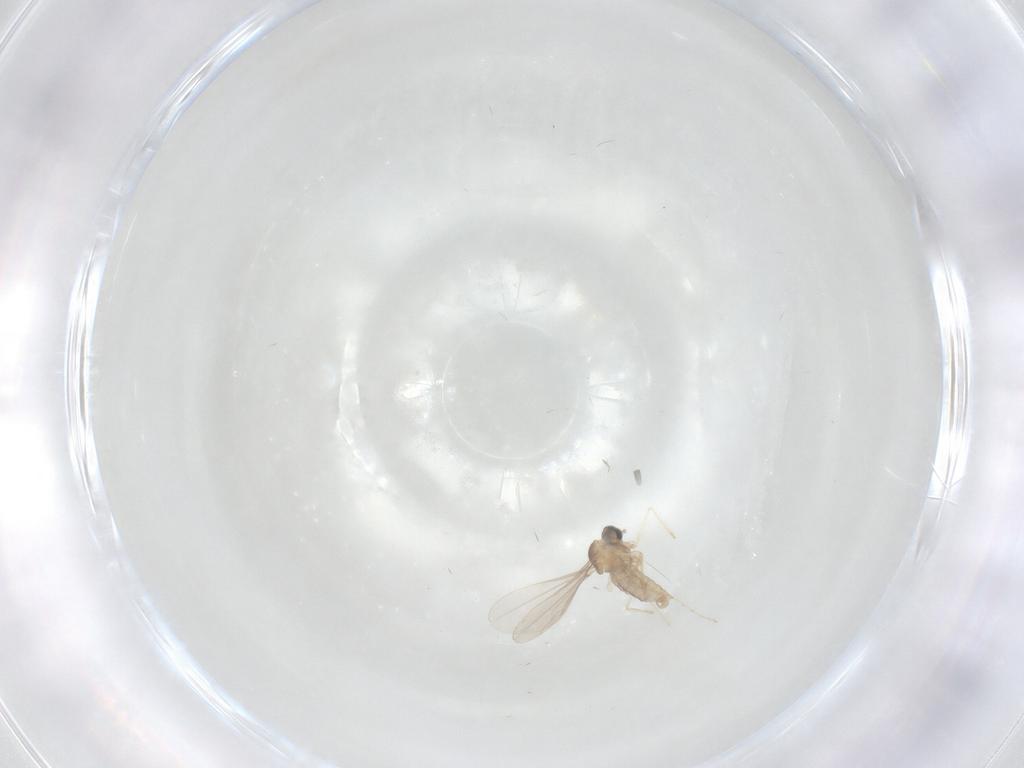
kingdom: Animalia
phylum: Arthropoda
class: Insecta
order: Diptera
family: Cecidomyiidae
